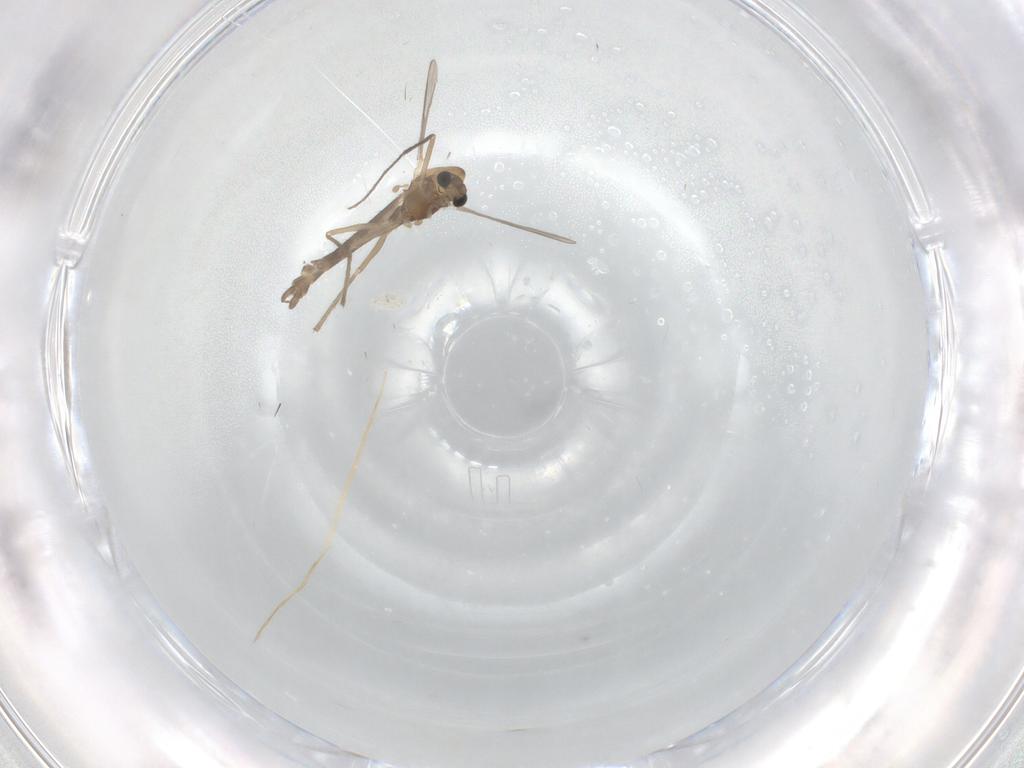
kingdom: Animalia
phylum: Arthropoda
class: Insecta
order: Diptera
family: Chironomidae
